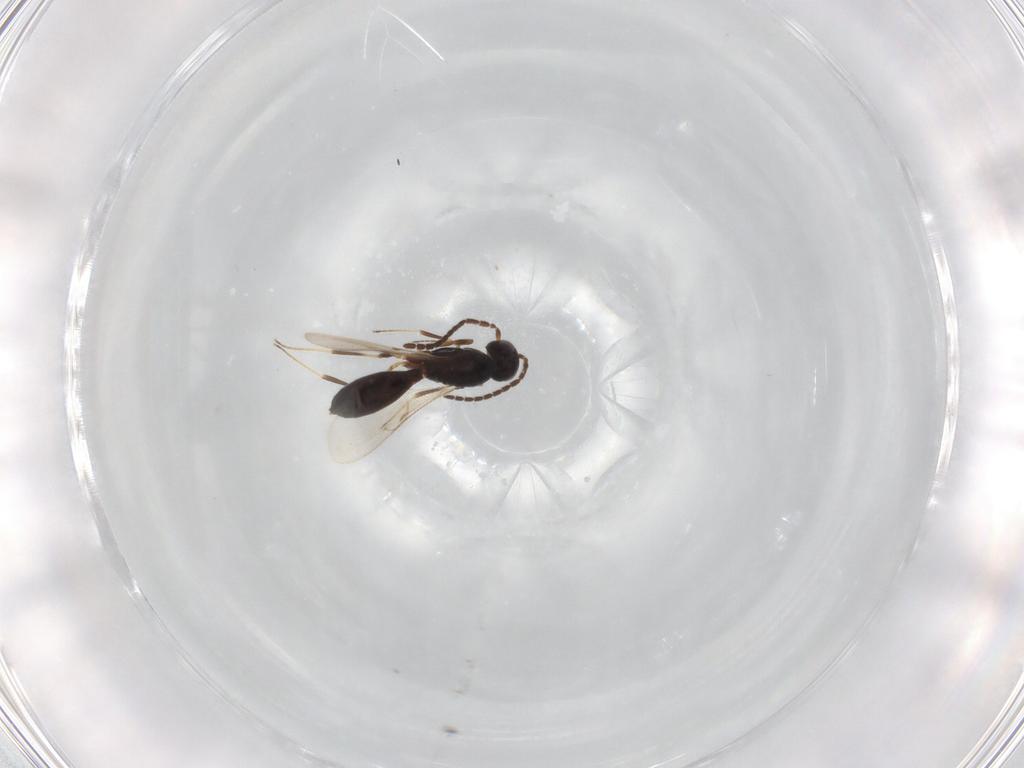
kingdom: Animalia
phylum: Arthropoda
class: Insecta
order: Hymenoptera
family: Scelionidae
